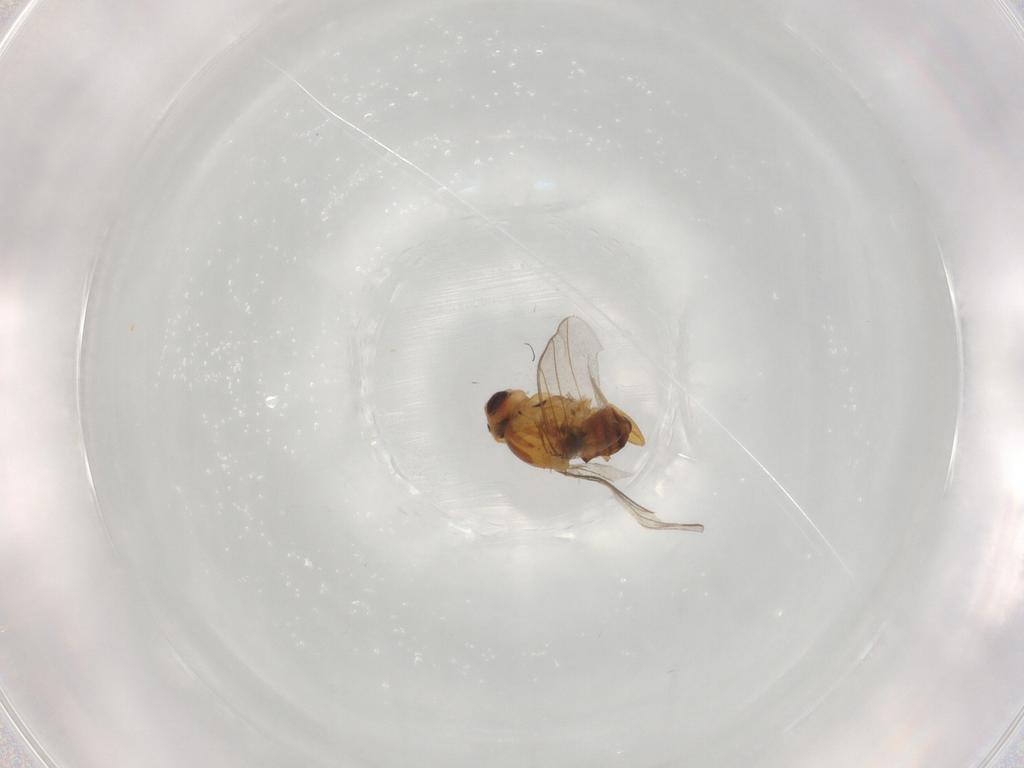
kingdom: Animalia
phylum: Arthropoda
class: Insecta
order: Diptera
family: Chloropidae
